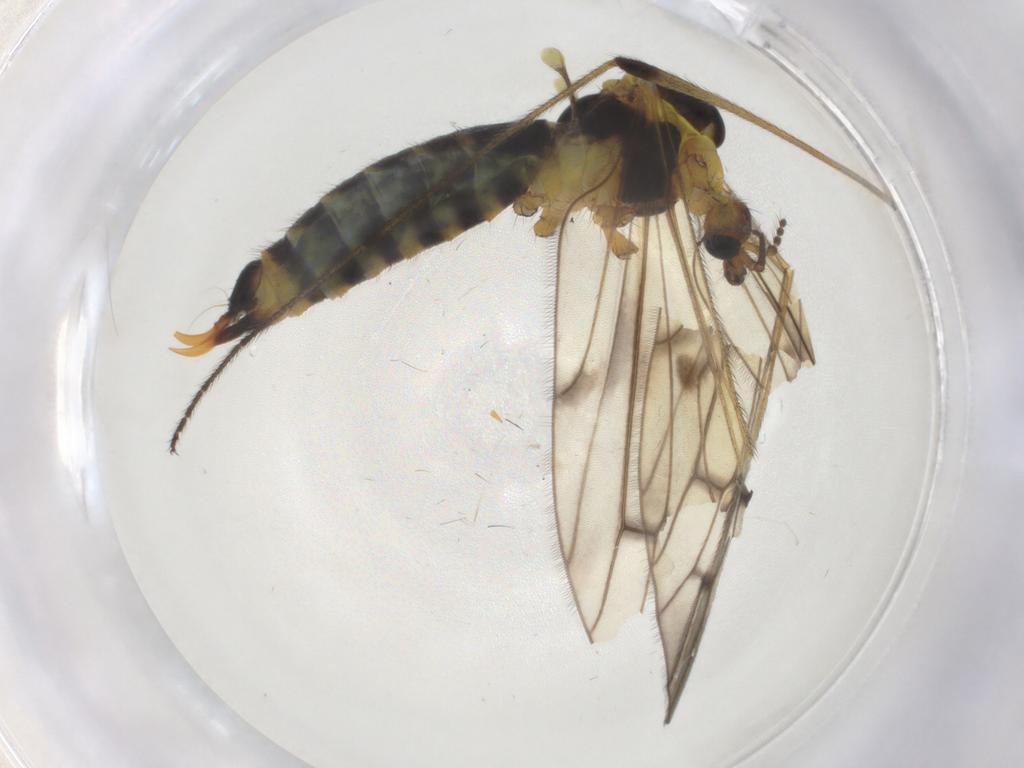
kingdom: Animalia
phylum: Arthropoda
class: Insecta
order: Diptera
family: Limoniidae
